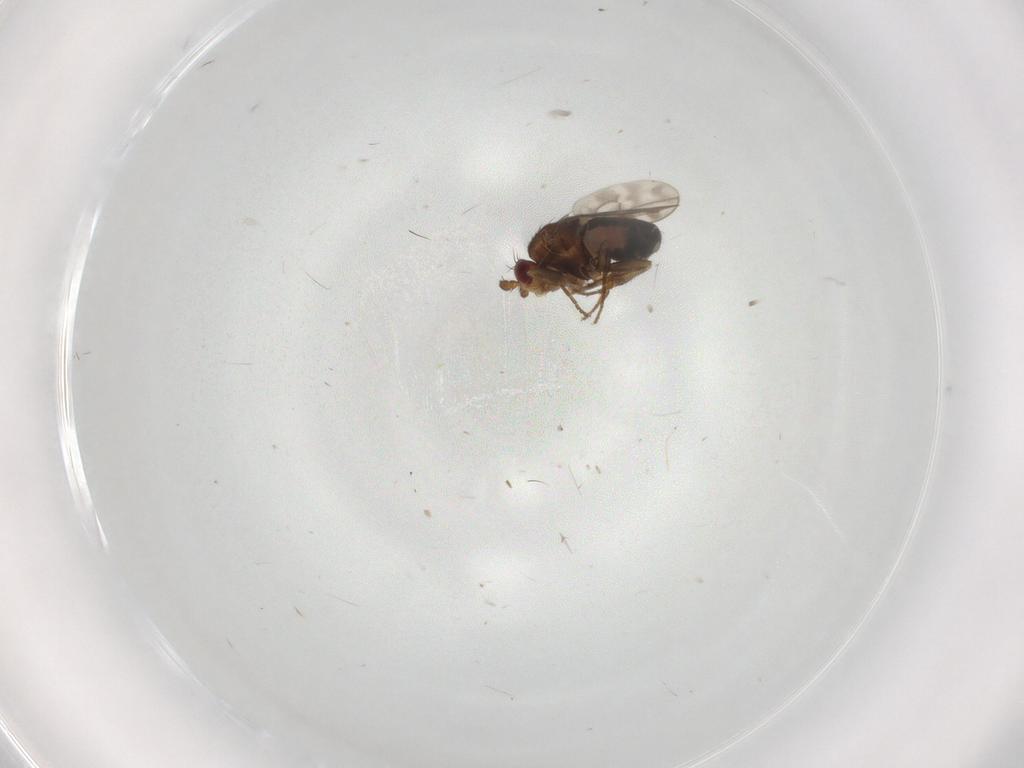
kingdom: Animalia
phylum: Arthropoda
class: Insecta
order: Diptera
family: Sphaeroceridae
